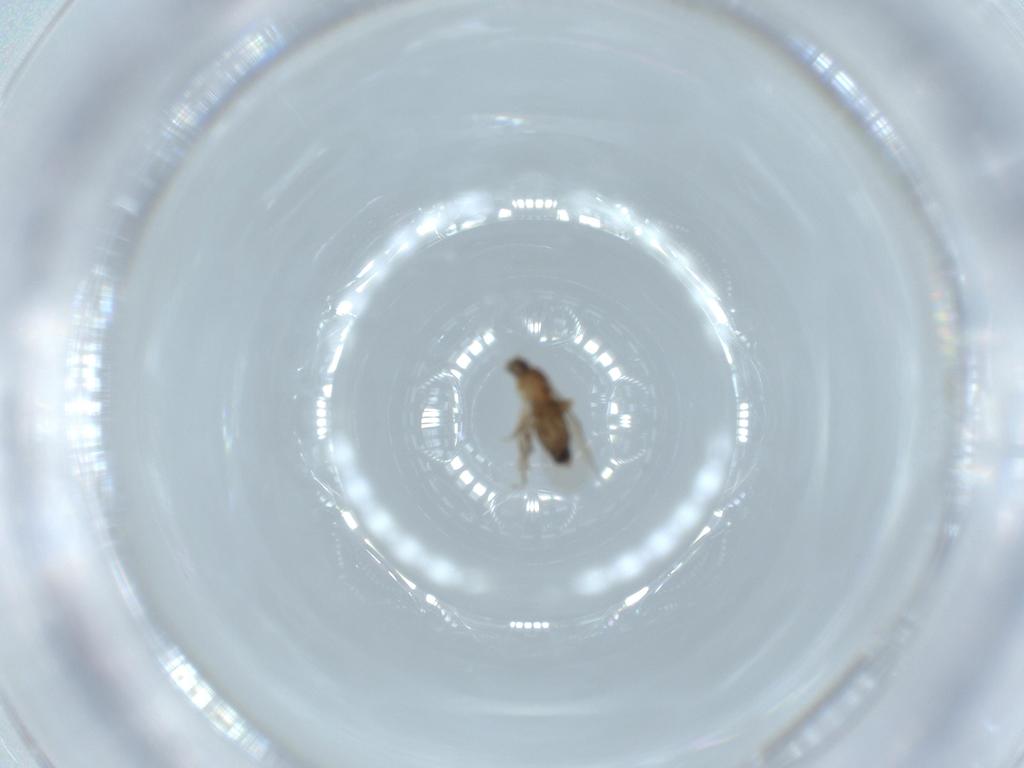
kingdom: Animalia
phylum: Arthropoda
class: Insecta
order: Diptera
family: Phoridae
